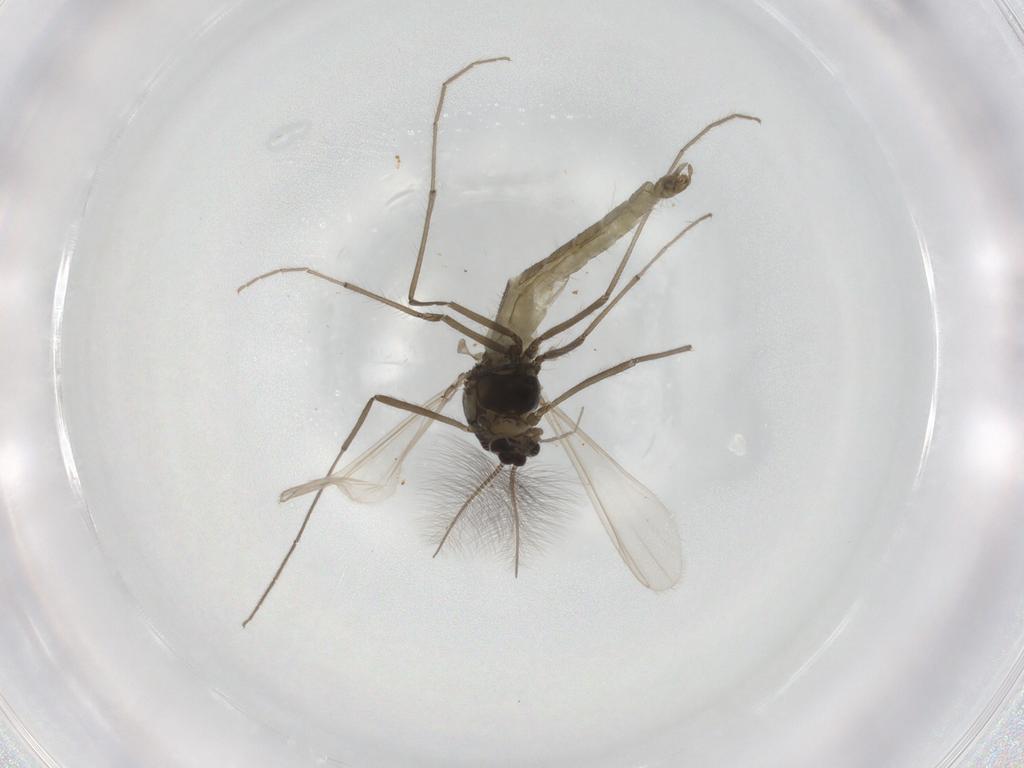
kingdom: Animalia
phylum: Arthropoda
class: Insecta
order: Diptera
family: Chironomidae
